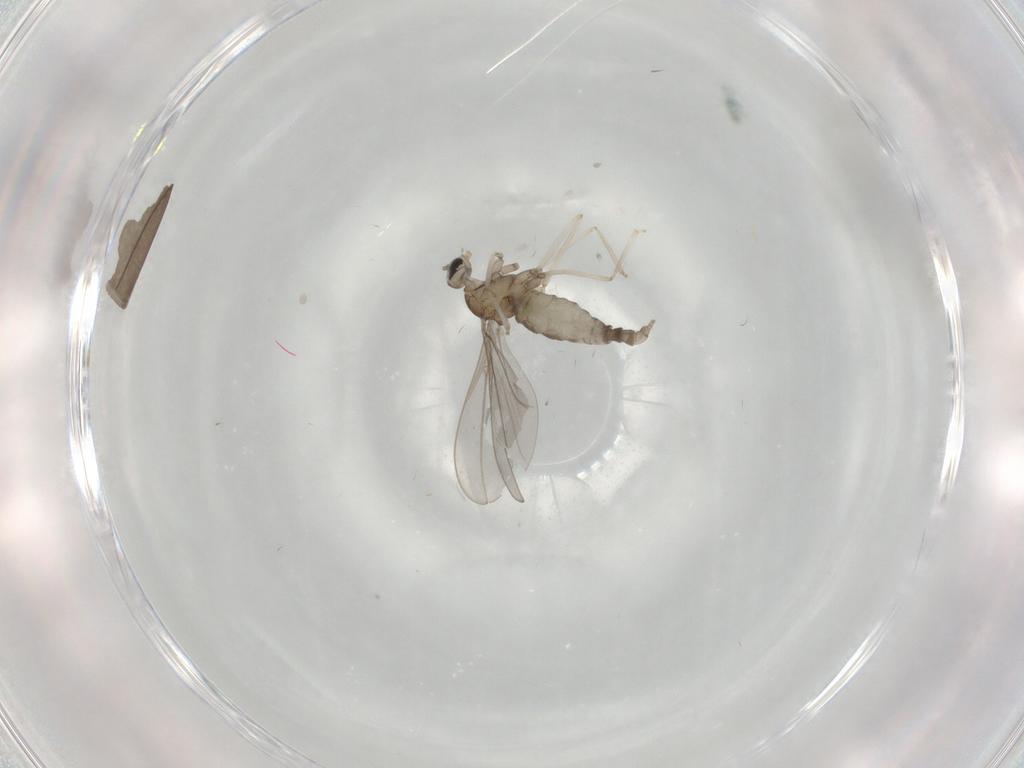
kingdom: Animalia
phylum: Arthropoda
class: Insecta
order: Diptera
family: Cecidomyiidae
